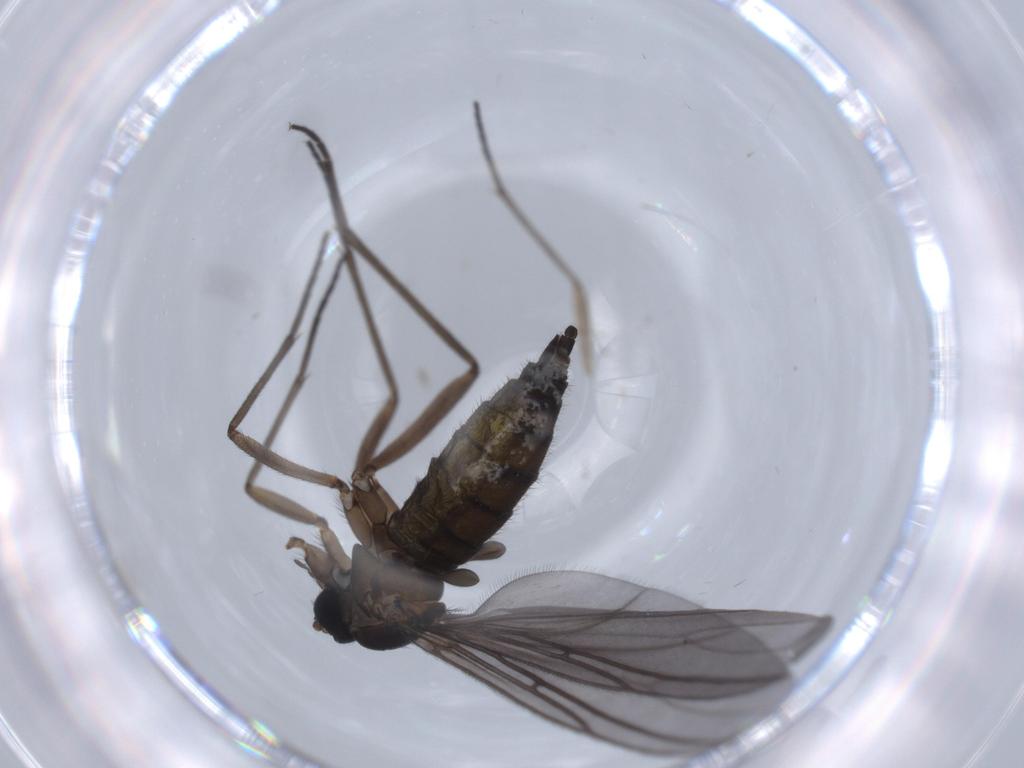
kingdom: Animalia
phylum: Arthropoda
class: Insecta
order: Diptera
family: Sciaridae
